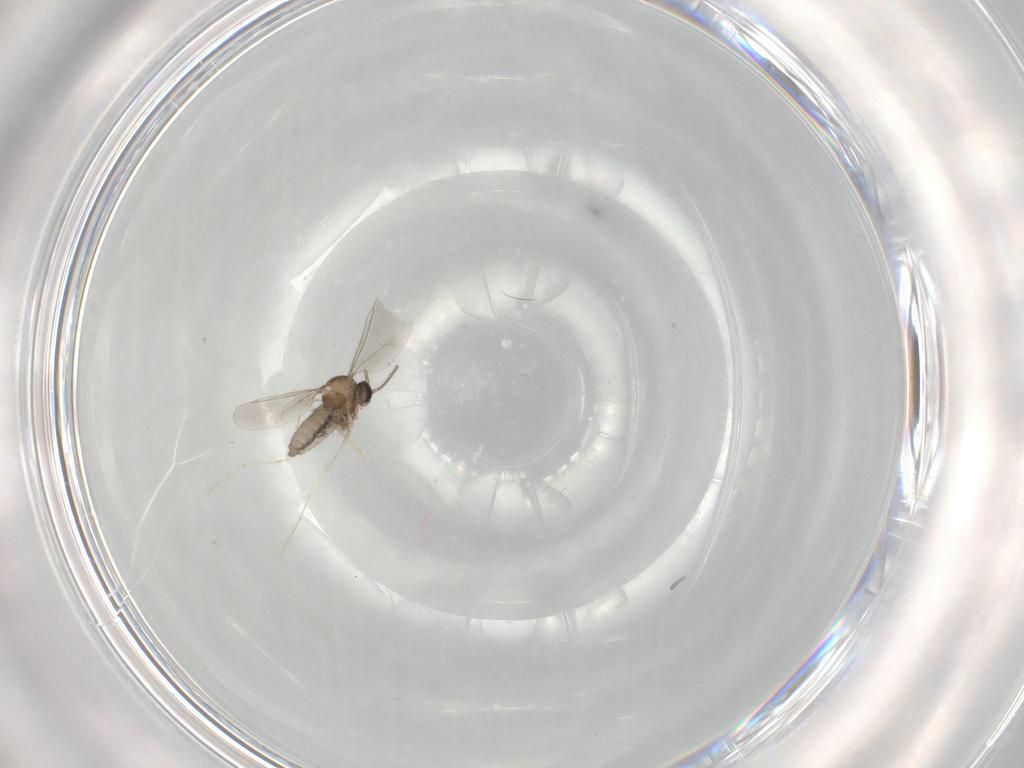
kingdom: Animalia
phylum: Arthropoda
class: Insecta
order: Diptera
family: Cecidomyiidae
